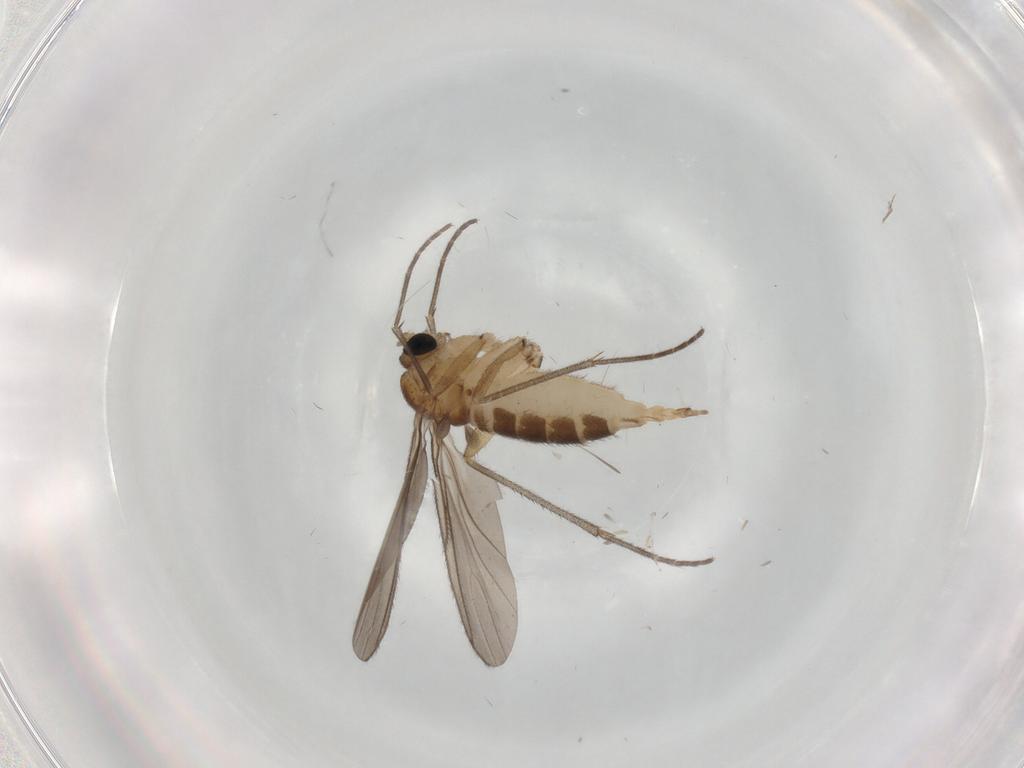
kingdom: Animalia
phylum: Arthropoda
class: Insecta
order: Diptera
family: Sciaridae
